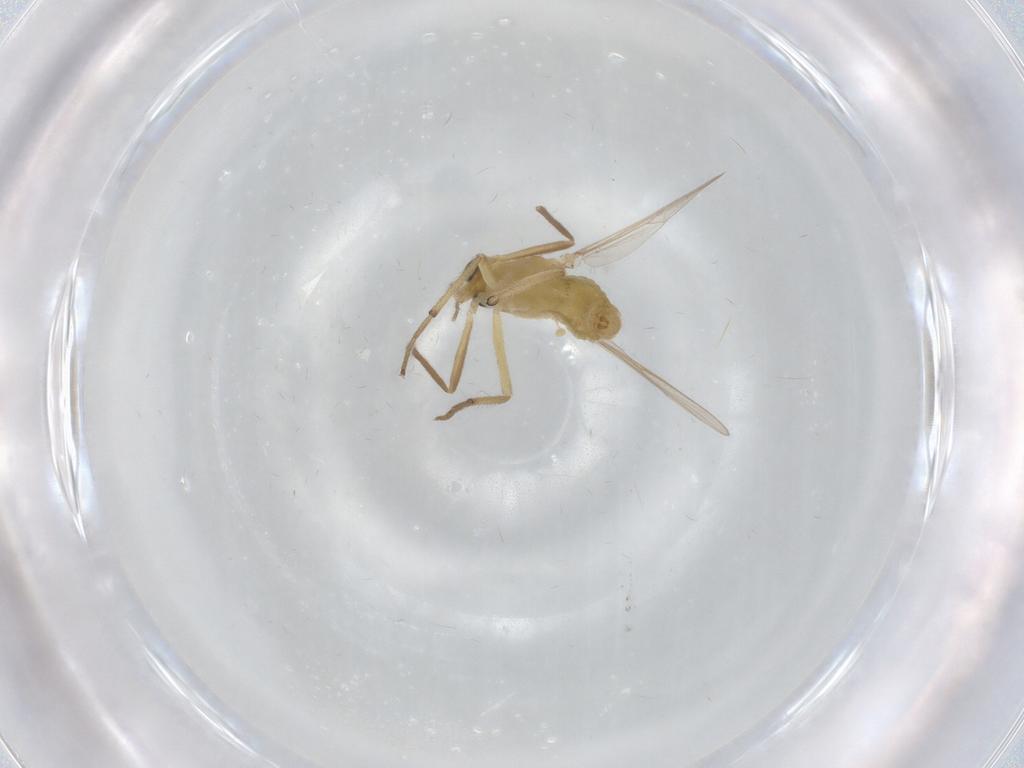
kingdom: Animalia
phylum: Arthropoda
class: Insecta
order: Diptera
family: Chironomidae
